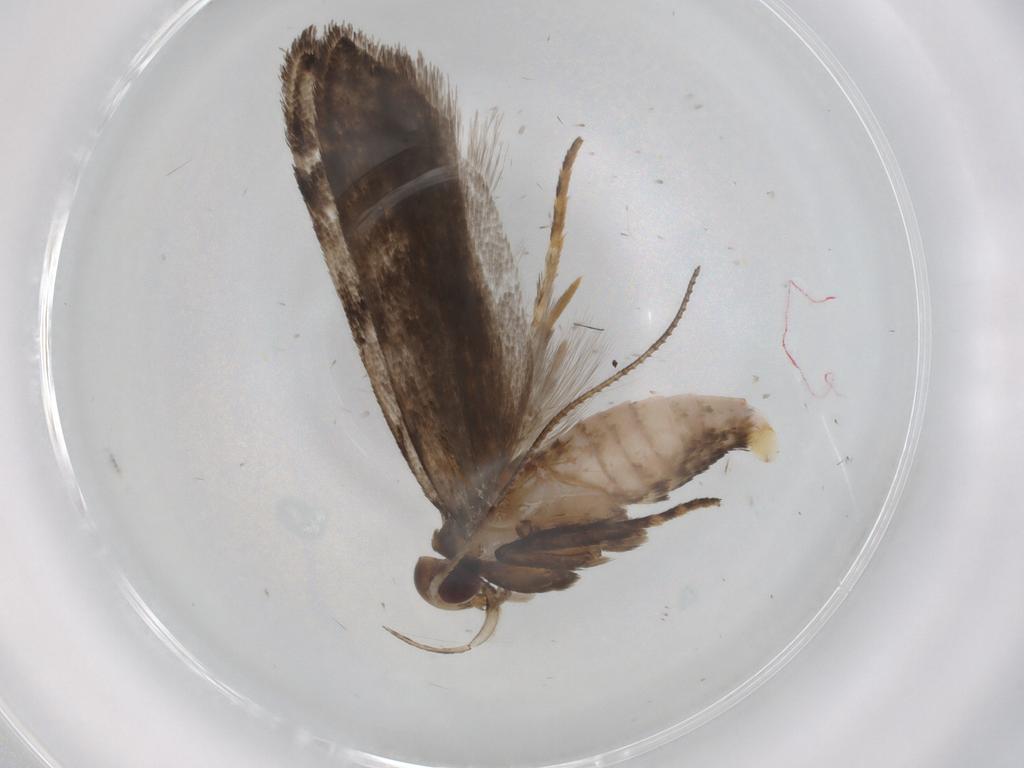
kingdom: Animalia
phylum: Arthropoda
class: Insecta
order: Lepidoptera
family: Gelechiidae
